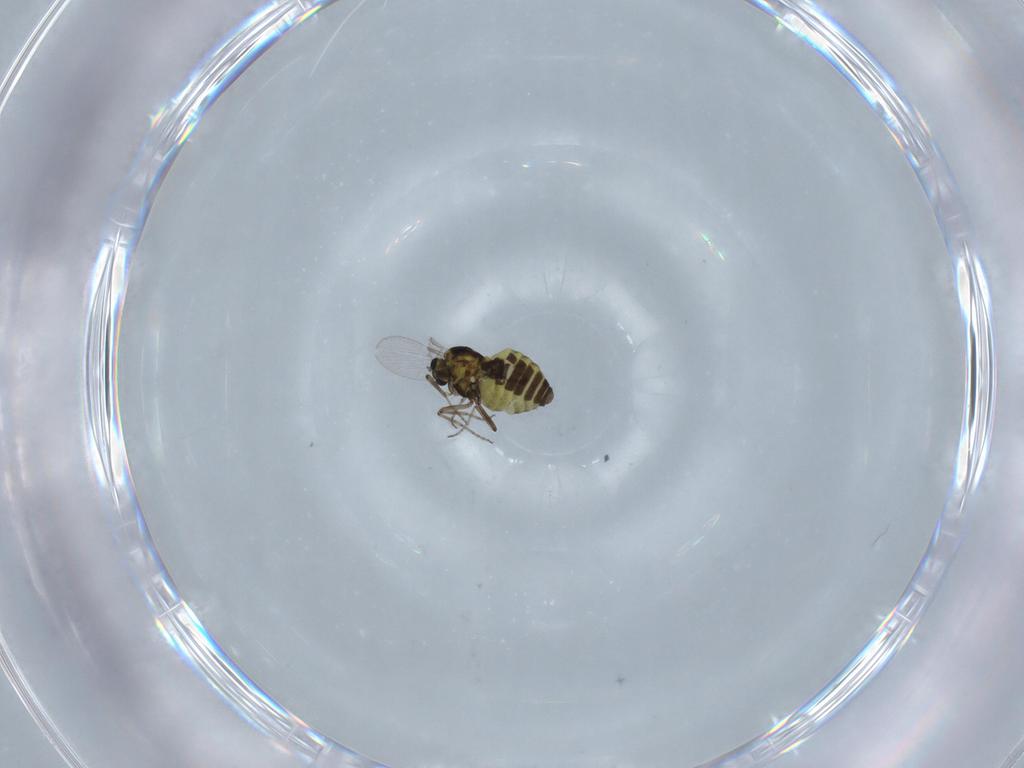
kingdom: Animalia
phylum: Arthropoda
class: Insecta
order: Diptera
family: Ceratopogonidae
